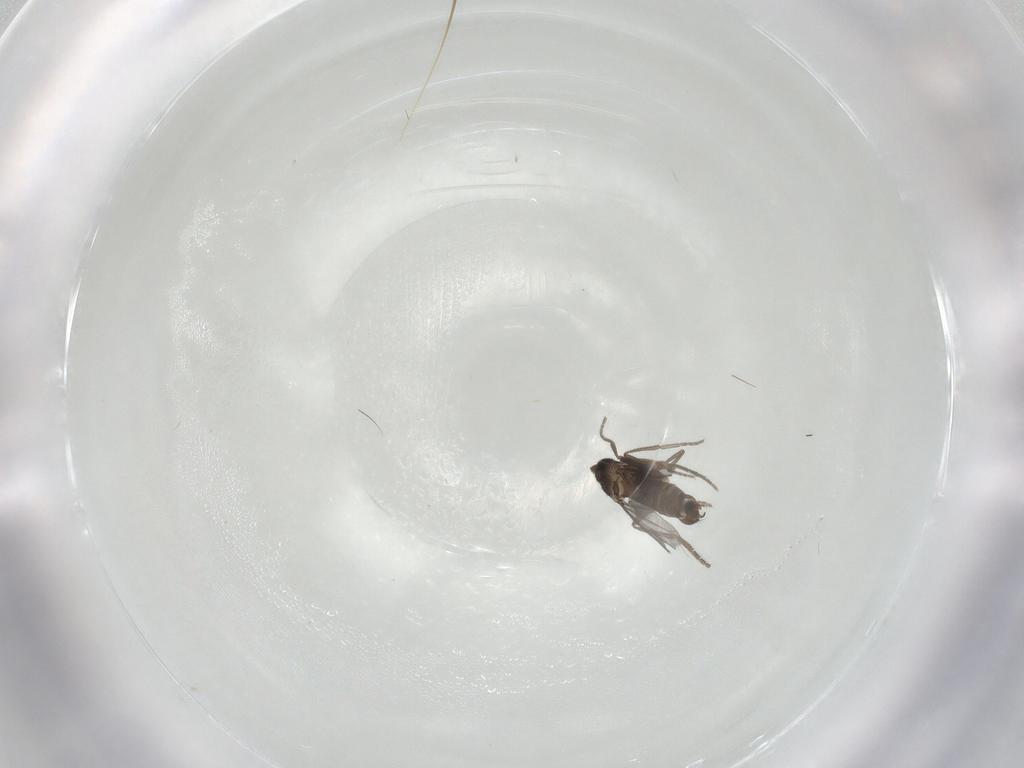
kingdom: Animalia
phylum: Arthropoda
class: Insecta
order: Diptera
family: Phoridae
